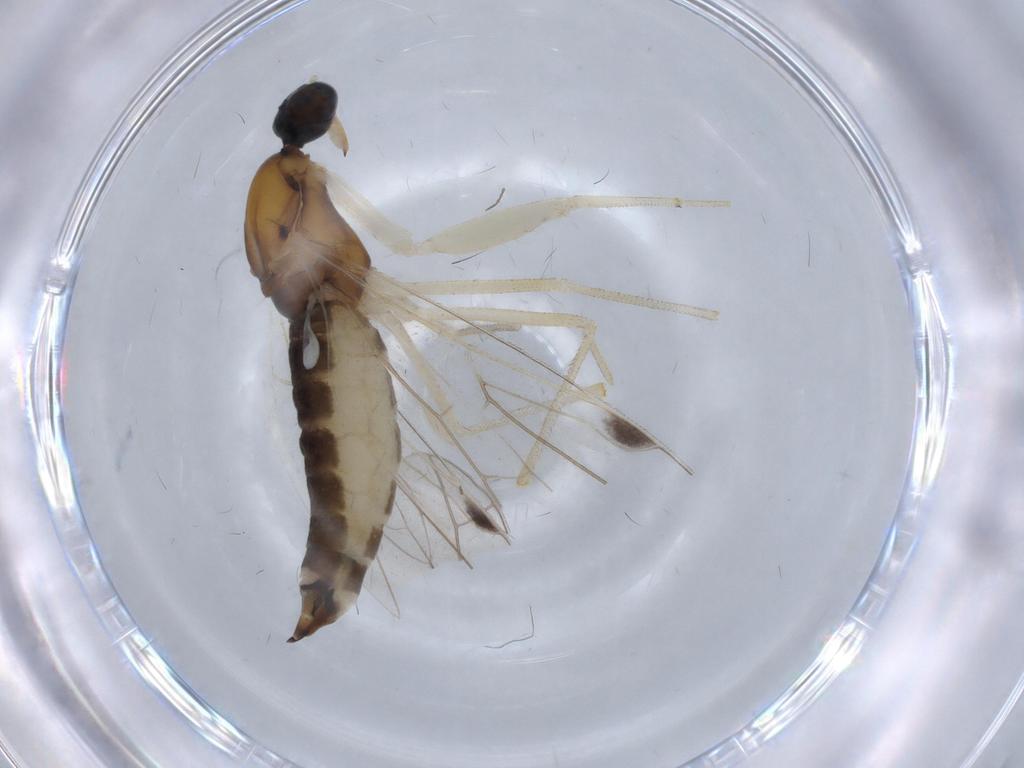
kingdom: Animalia
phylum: Arthropoda
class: Insecta
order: Diptera
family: Empididae
